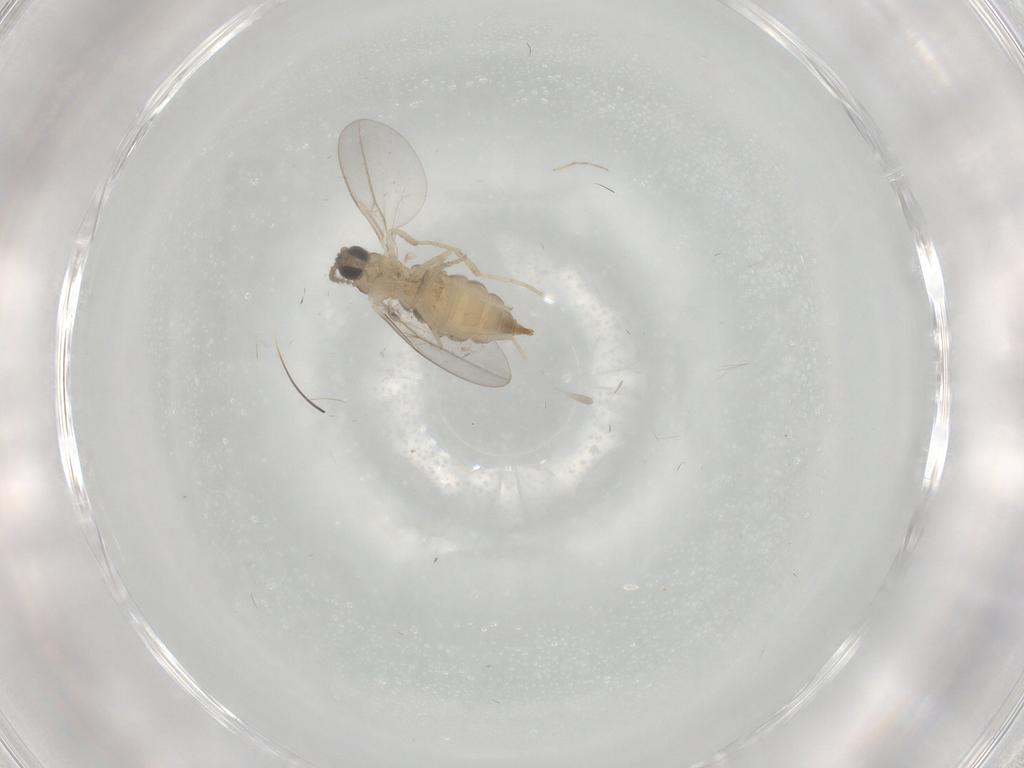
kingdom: Animalia
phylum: Arthropoda
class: Insecta
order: Diptera
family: Cecidomyiidae
